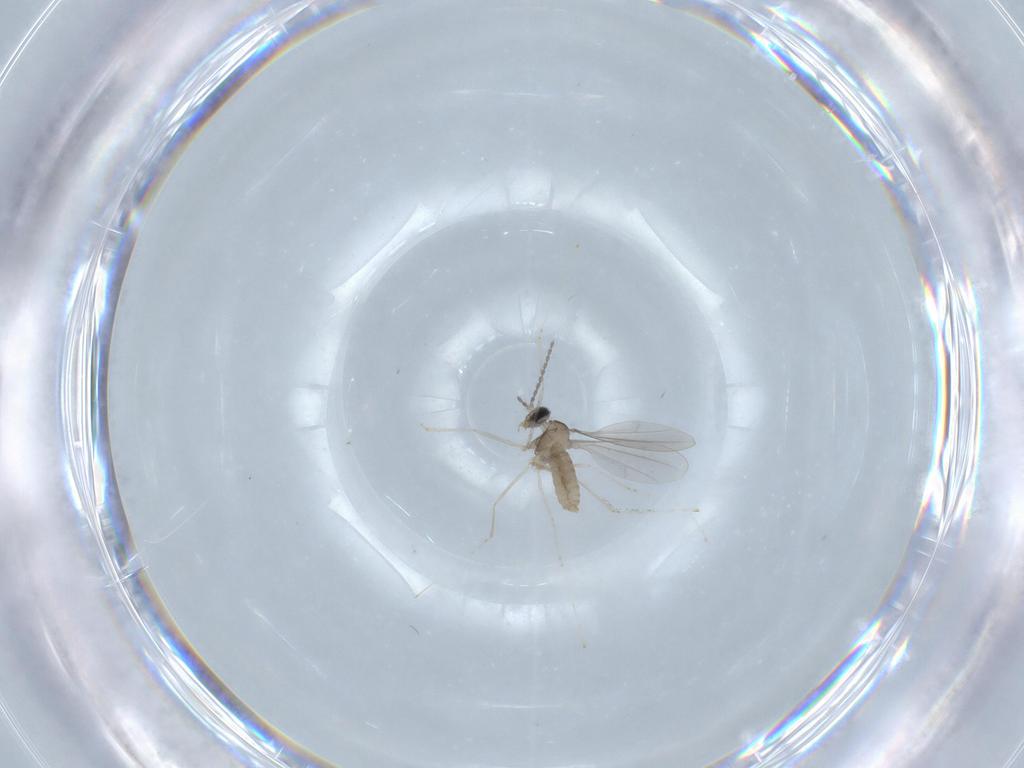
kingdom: Animalia
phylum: Arthropoda
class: Insecta
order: Diptera
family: Cecidomyiidae
